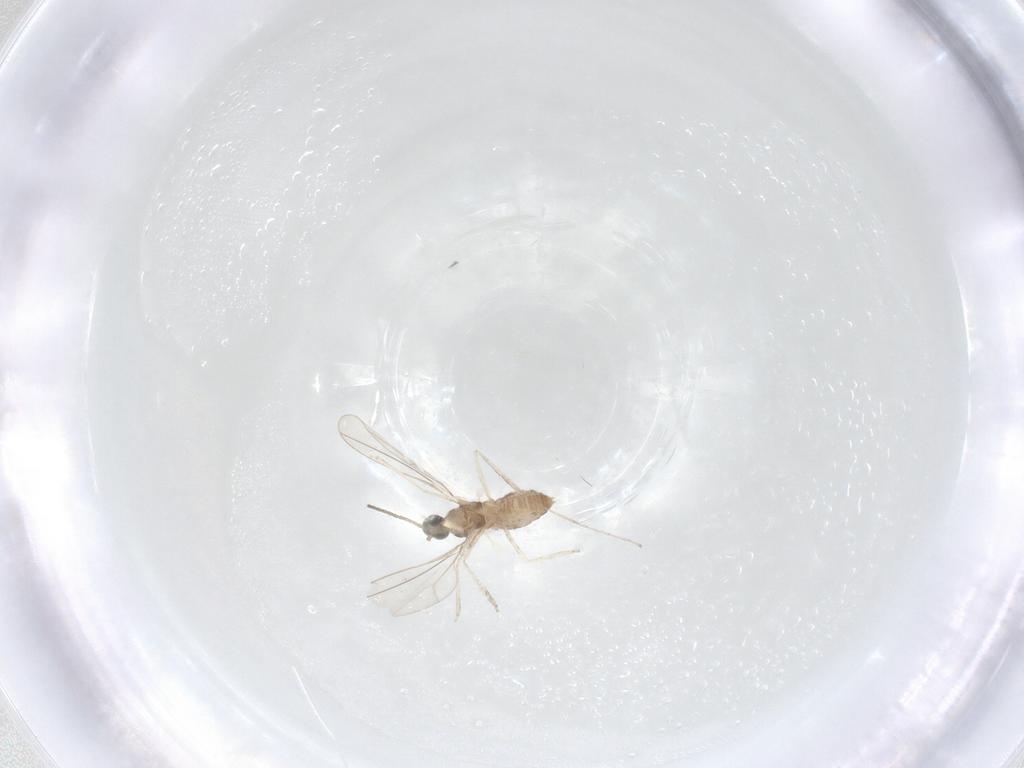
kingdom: Animalia
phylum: Arthropoda
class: Insecta
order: Diptera
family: Cecidomyiidae
